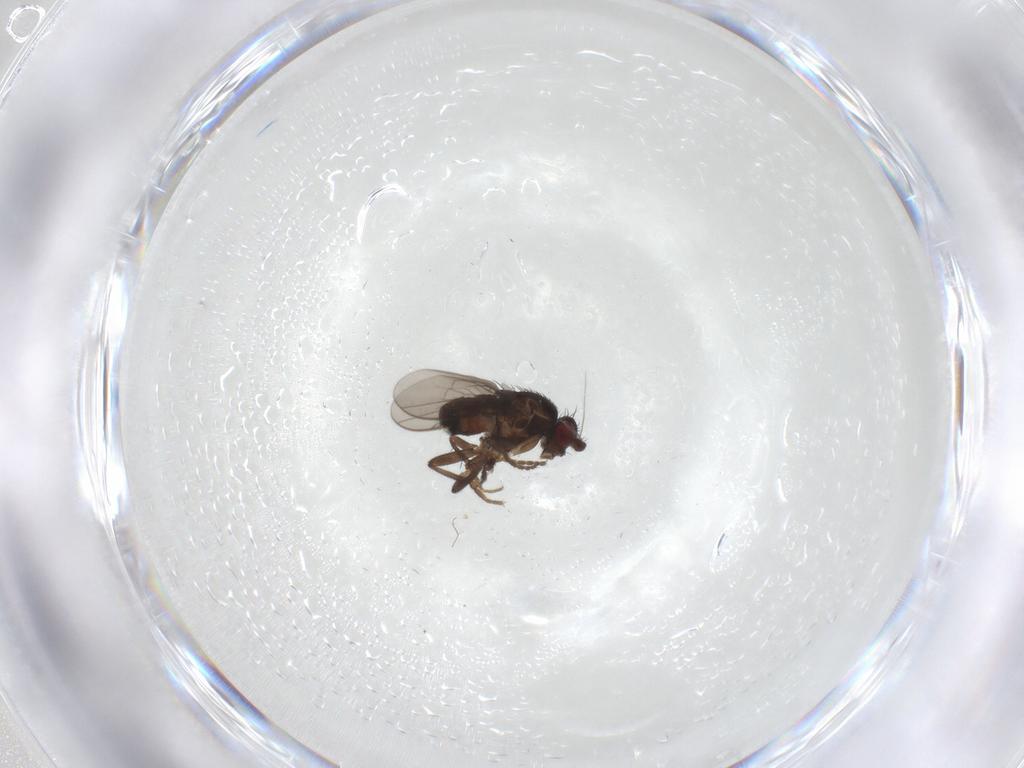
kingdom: Animalia
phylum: Arthropoda
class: Insecta
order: Diptera
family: Sphaeroceridae
